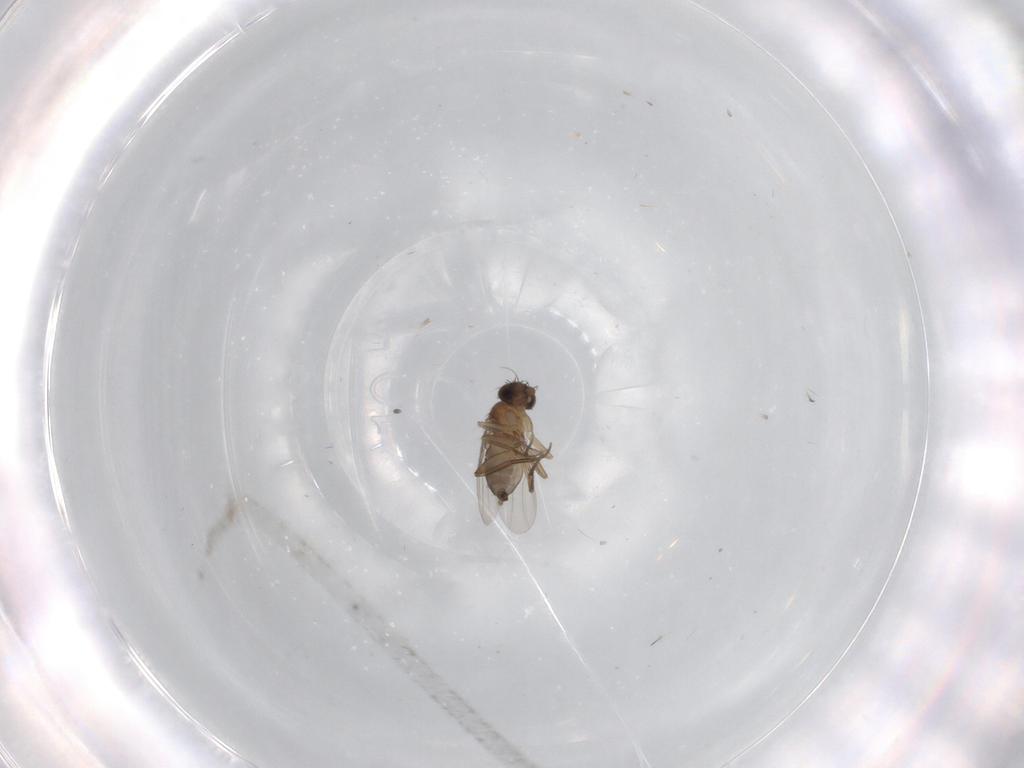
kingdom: Animalia
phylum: Arthropoda
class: Insecta
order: Diptera
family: Phoridae
